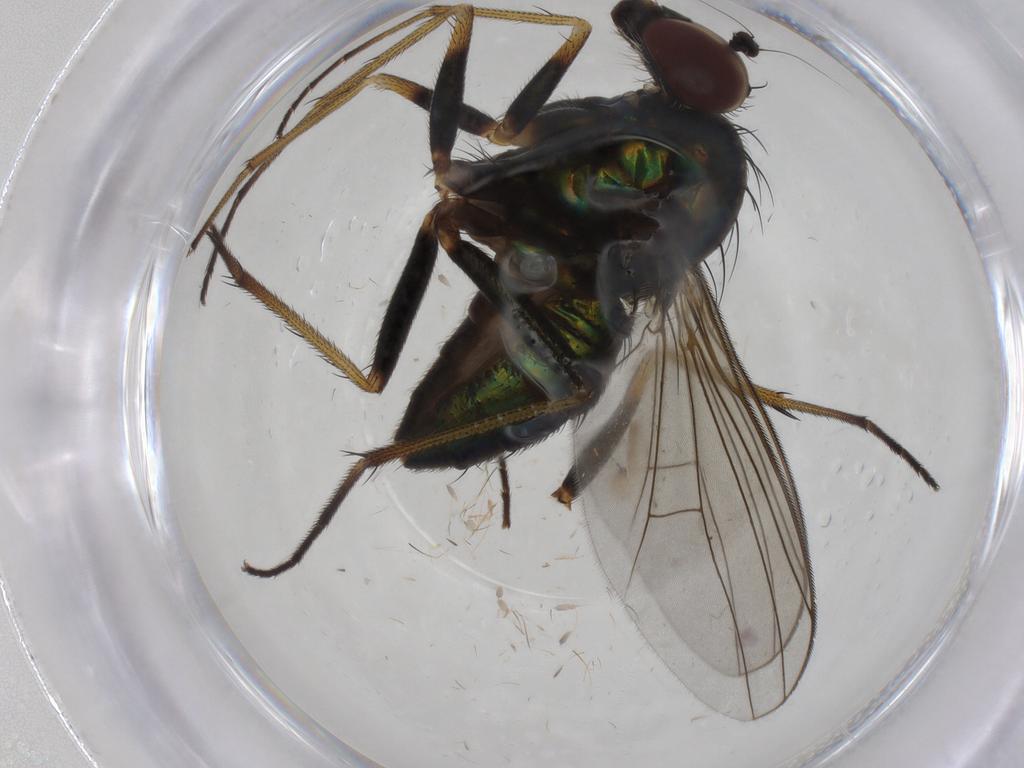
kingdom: Animalia
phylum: Arthropoda
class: Insecta
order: Diptera
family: Dolichopodidae
